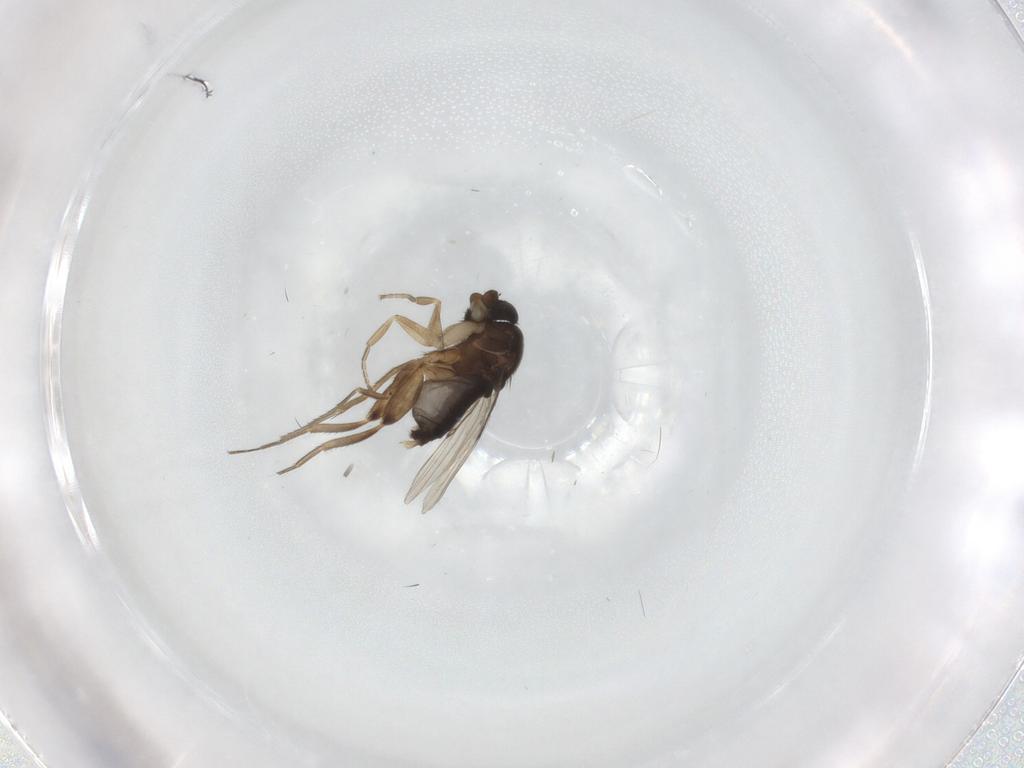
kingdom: Animalia
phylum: Arthropoda
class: Insecta
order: Diptera
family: Phoridae
